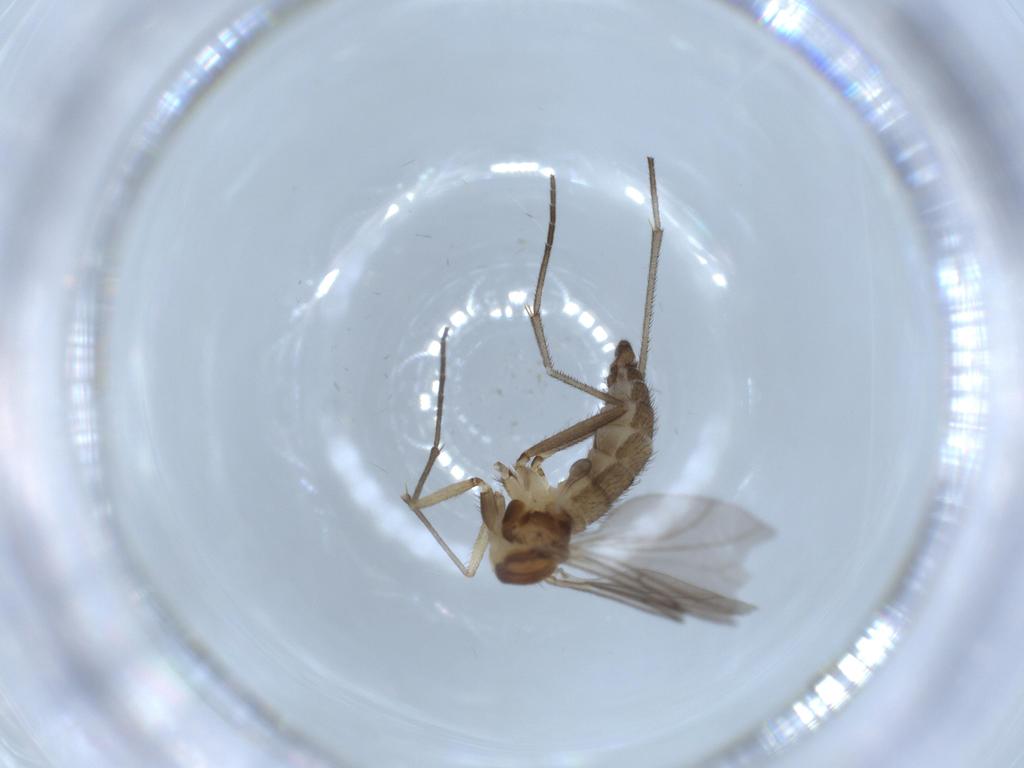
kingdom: Animalia
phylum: Arthropoda
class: Insecta
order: Diptera
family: Sciaridae
